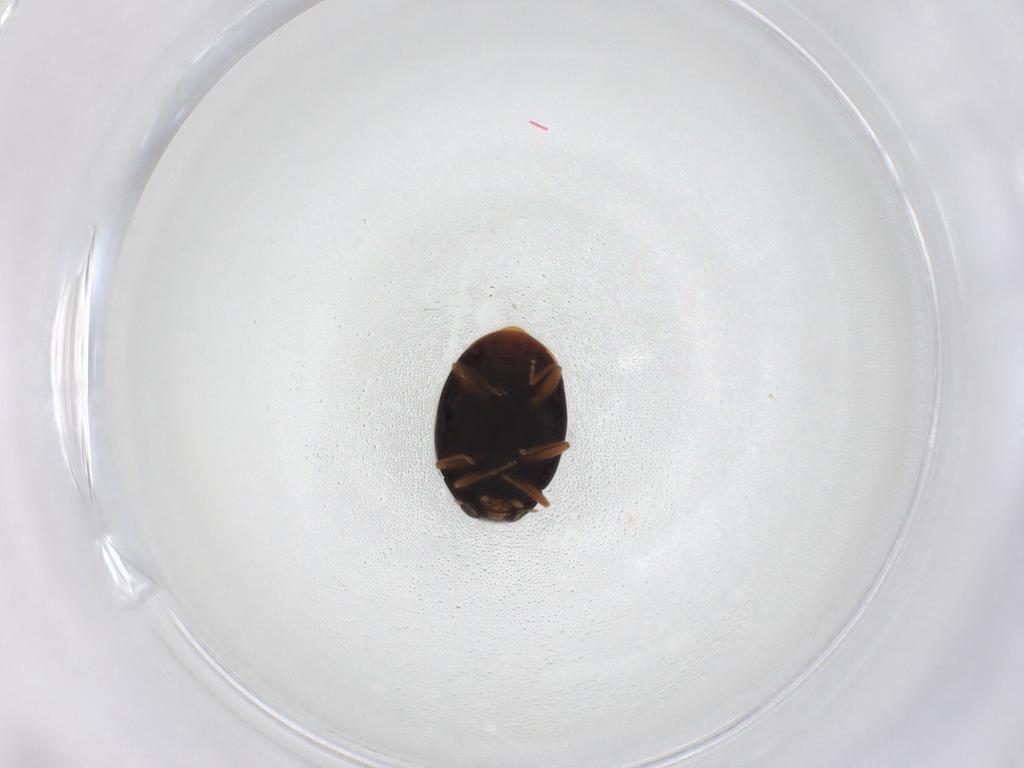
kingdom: Animalia
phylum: Arthropoda
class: Insecta
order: Coleoptera
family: Coccinellidae
